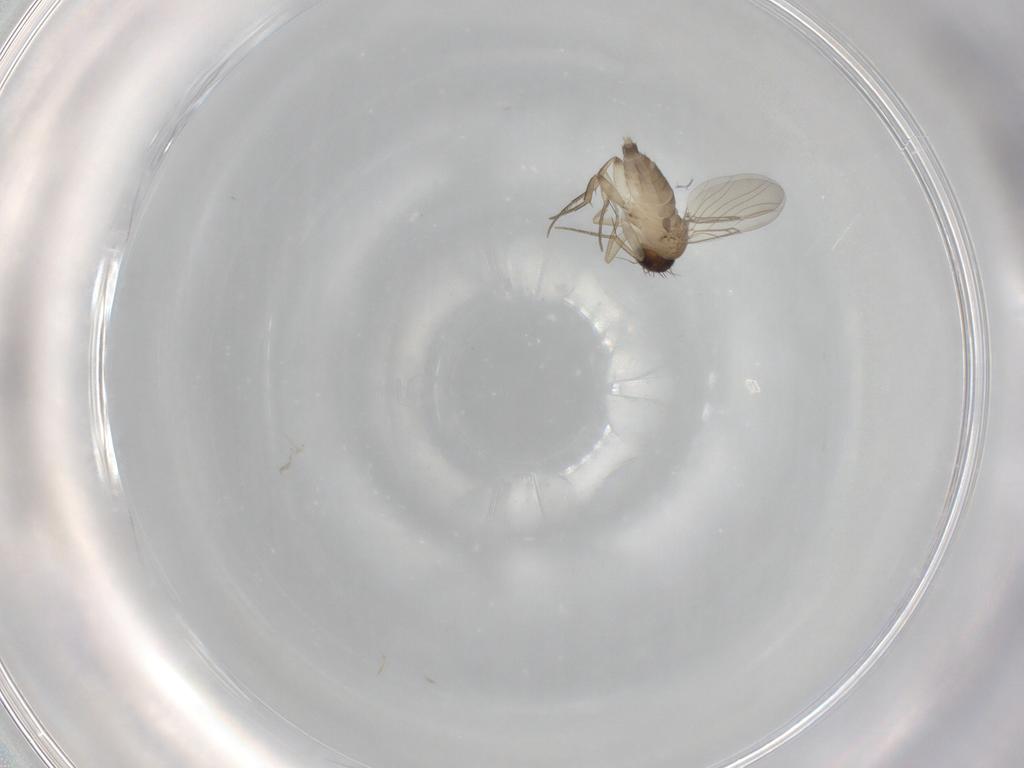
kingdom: Animalia
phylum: Arthropoda
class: Insecta
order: Diptera
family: Phoridae
